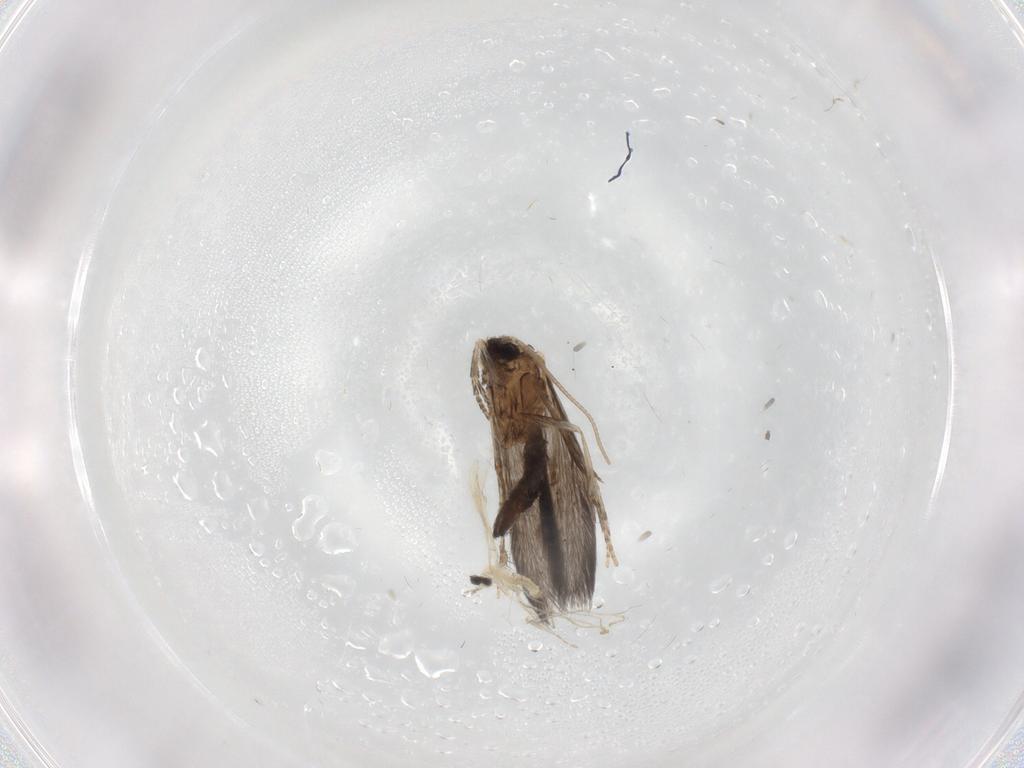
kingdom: Animalia
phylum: Arthropoda
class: Insecta
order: Diptera
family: Cecidomyiidae
